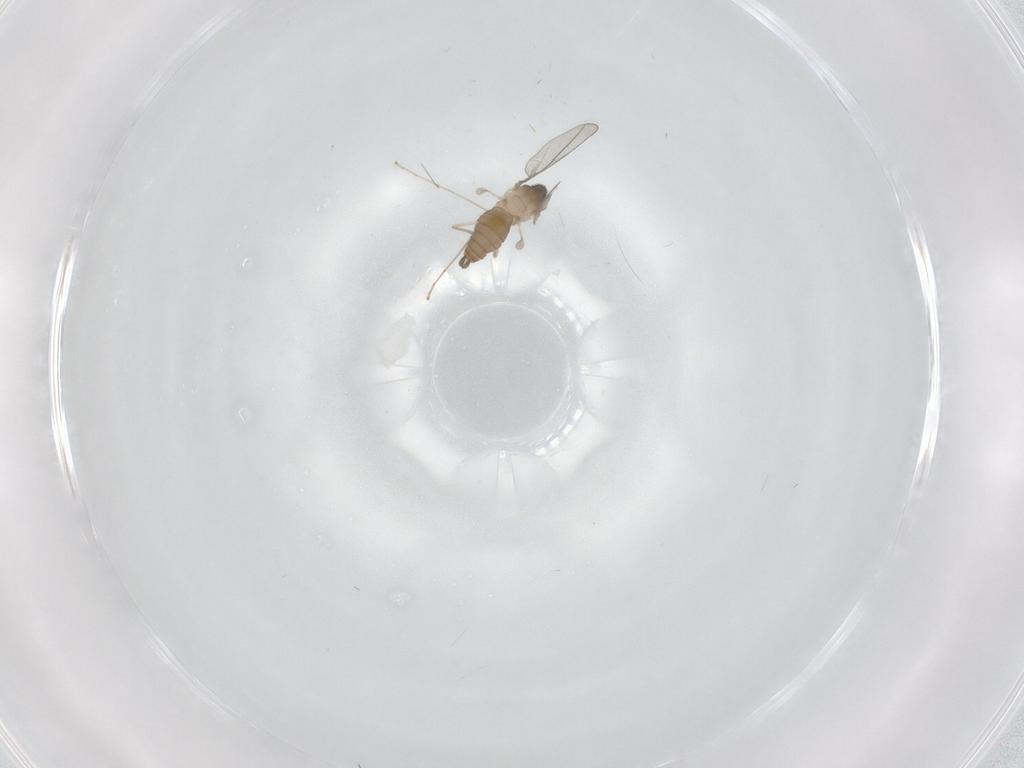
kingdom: Animalia
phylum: Arthropoda
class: Insecta
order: Diptera
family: Cecidomyiidae
